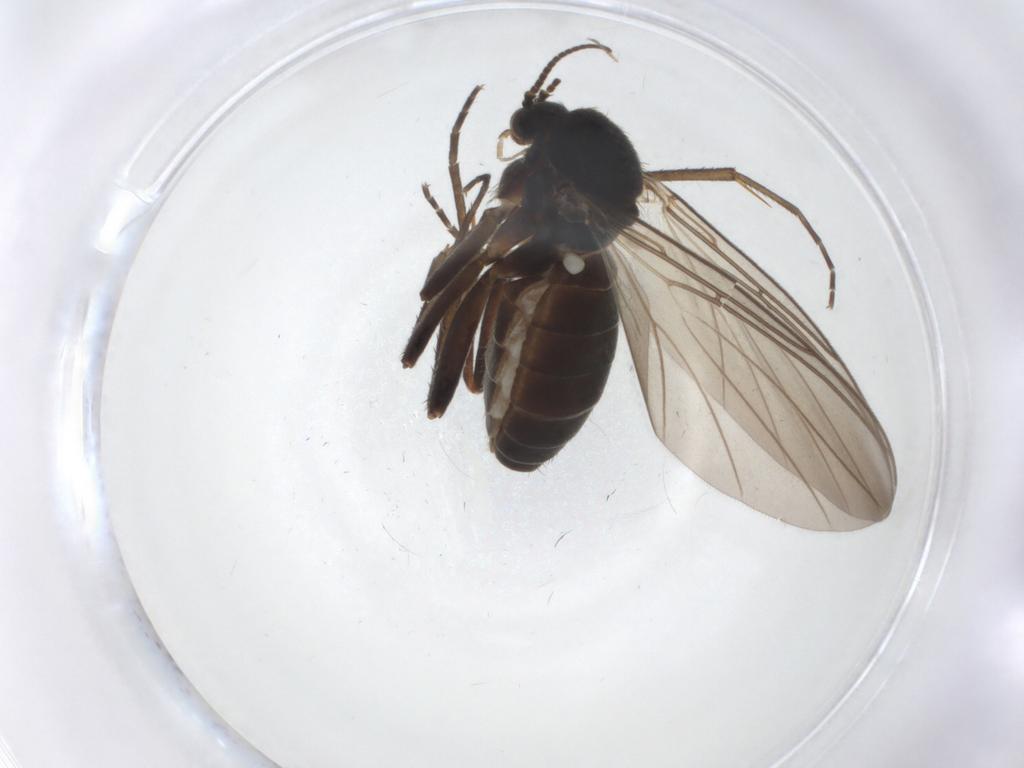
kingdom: Animalia
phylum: Arthropoda
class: Insecta
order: Diptera
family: Mycetophilidae
